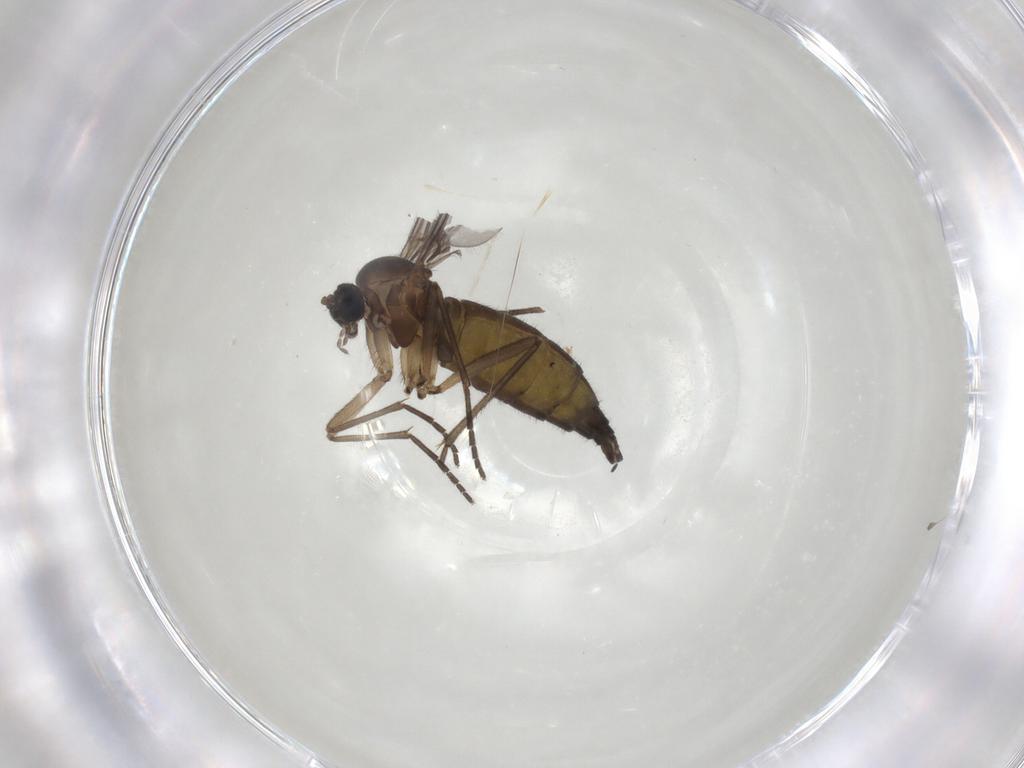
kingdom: Animalia
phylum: Arthropoda
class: Insecta
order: Diptera
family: Sciaridae
